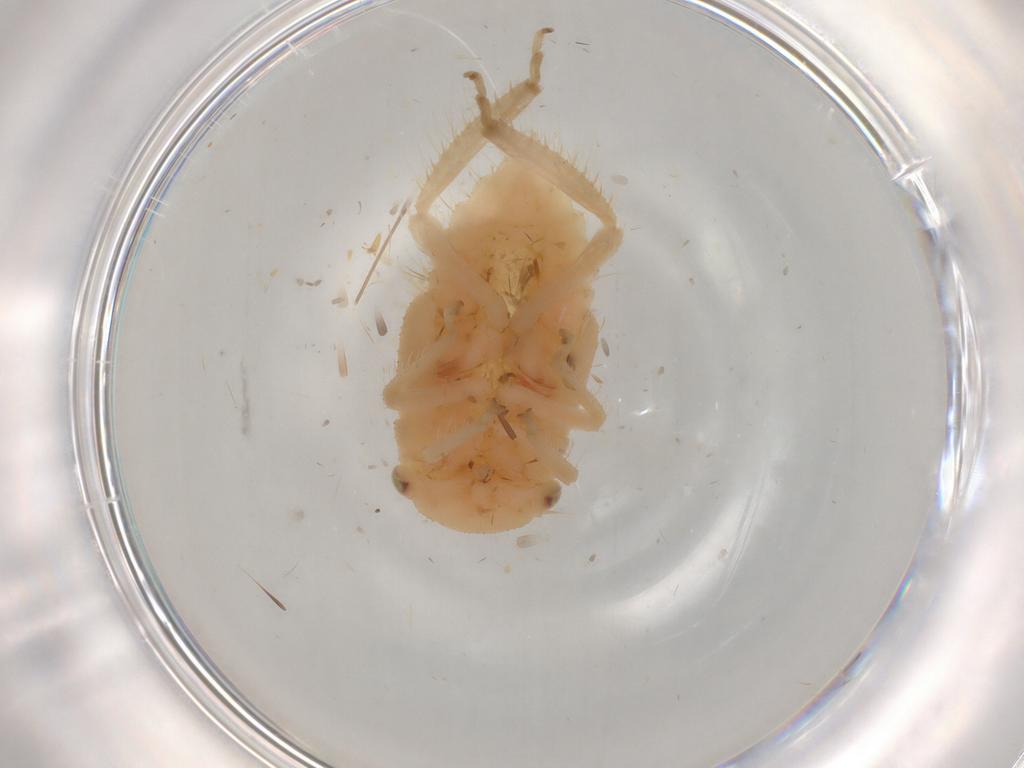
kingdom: Animalia
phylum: Arthropoda
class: Insecta
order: Hemiptera
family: Cicadellidae
